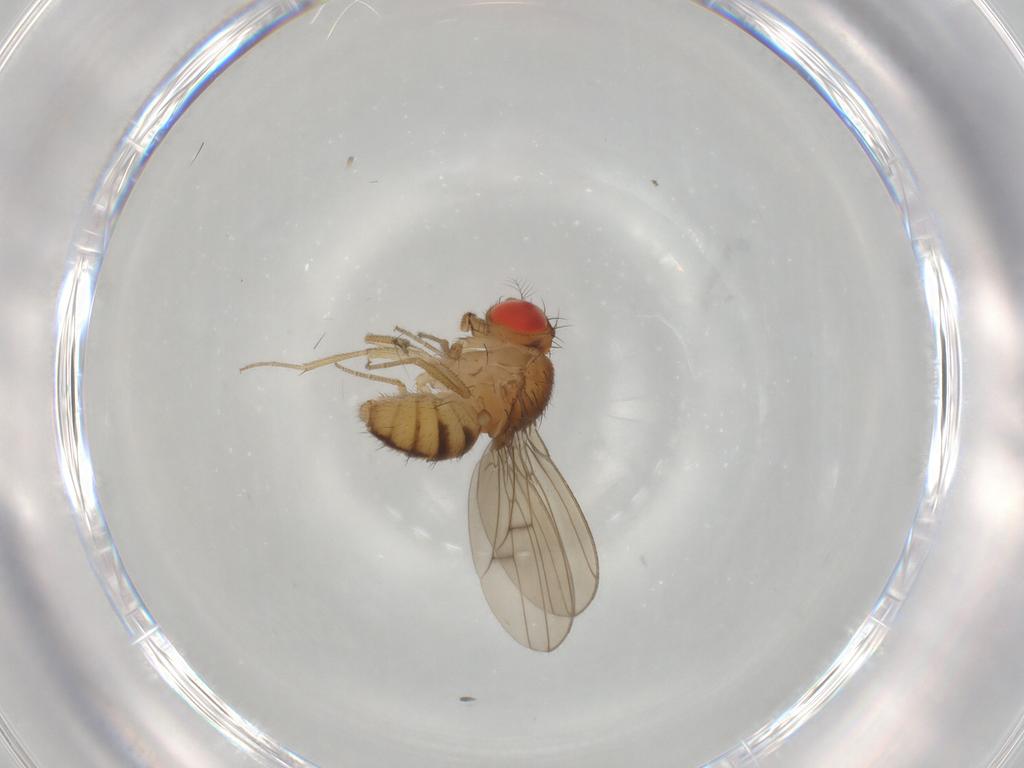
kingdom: Animalia
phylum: Arthropoda
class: Insecta
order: Diptera
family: Drosophilidae
